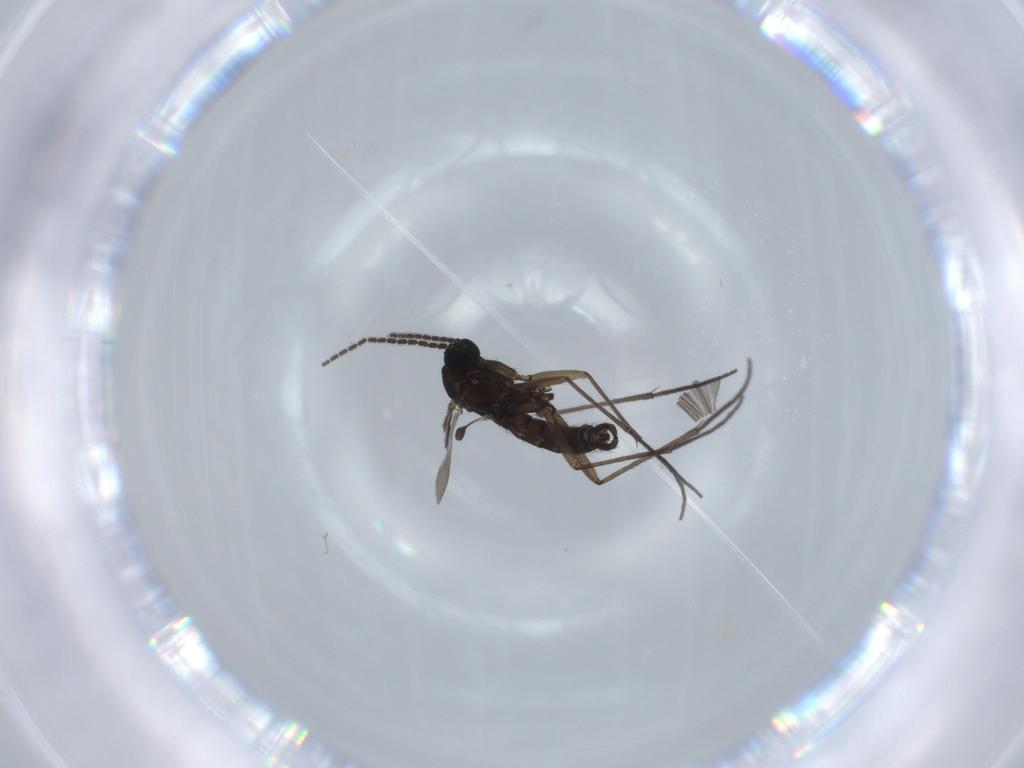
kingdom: Animalia
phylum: Arthropoda
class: Insecta
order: Diptera
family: Sciaridae
